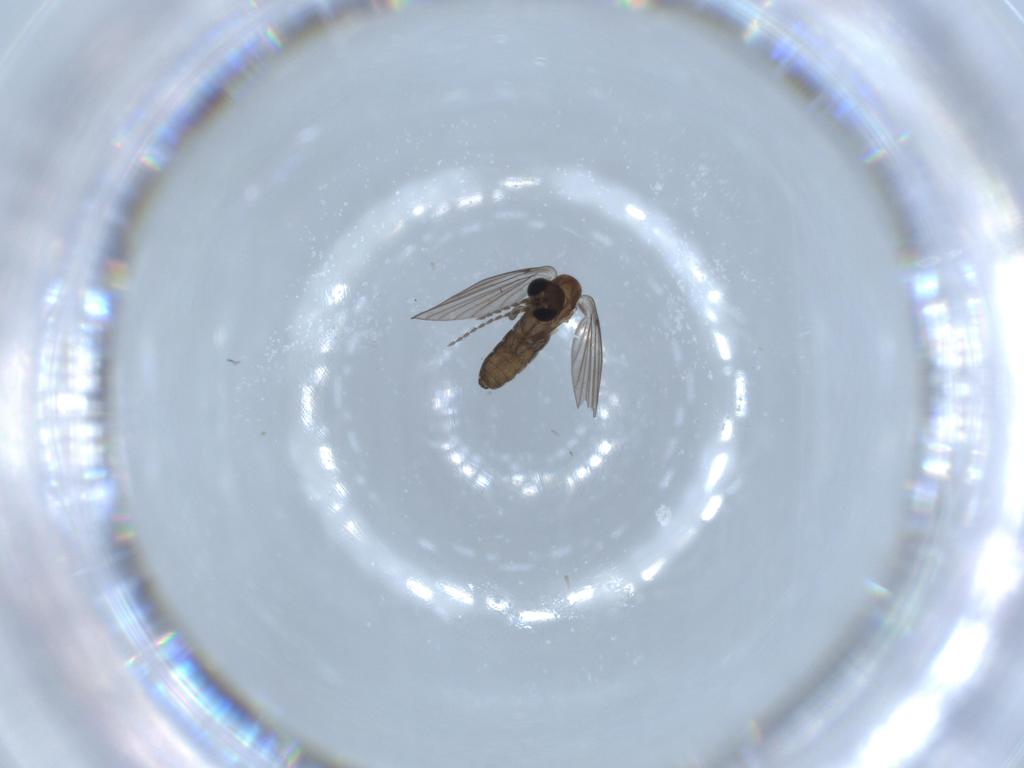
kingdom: Animalia
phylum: Arthropoda
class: Insecta
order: Diptera
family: Psychodidae
